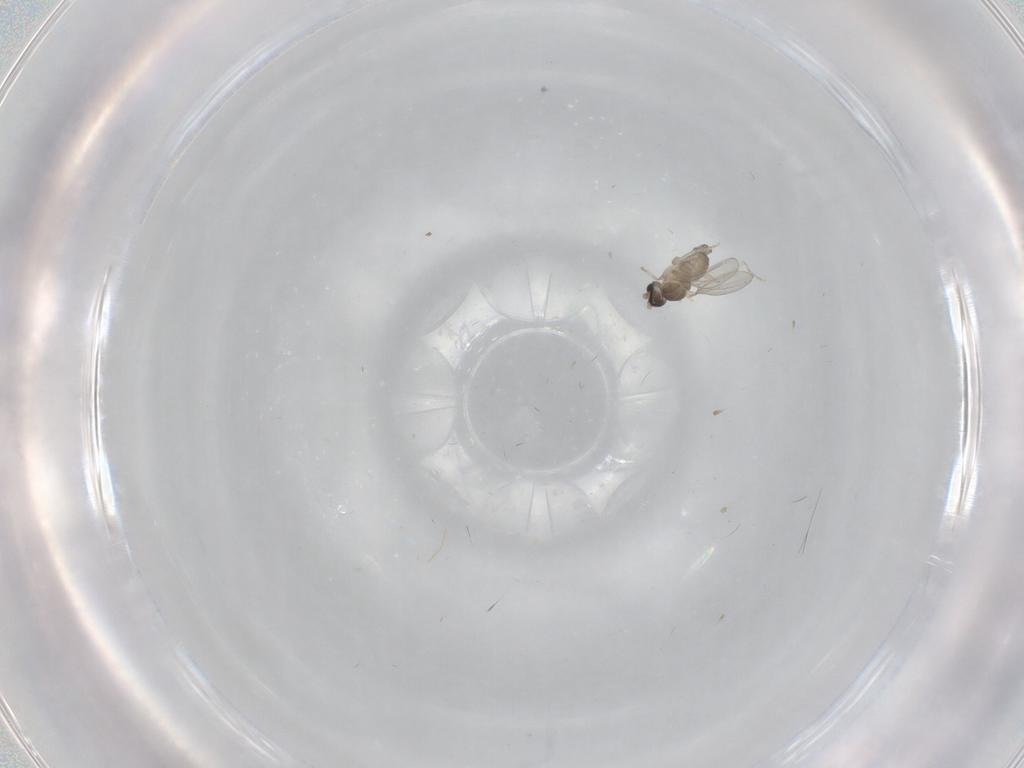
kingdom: Animalia
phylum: Arthropoda
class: Insecta
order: Diptera
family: Cecidomyiidae
